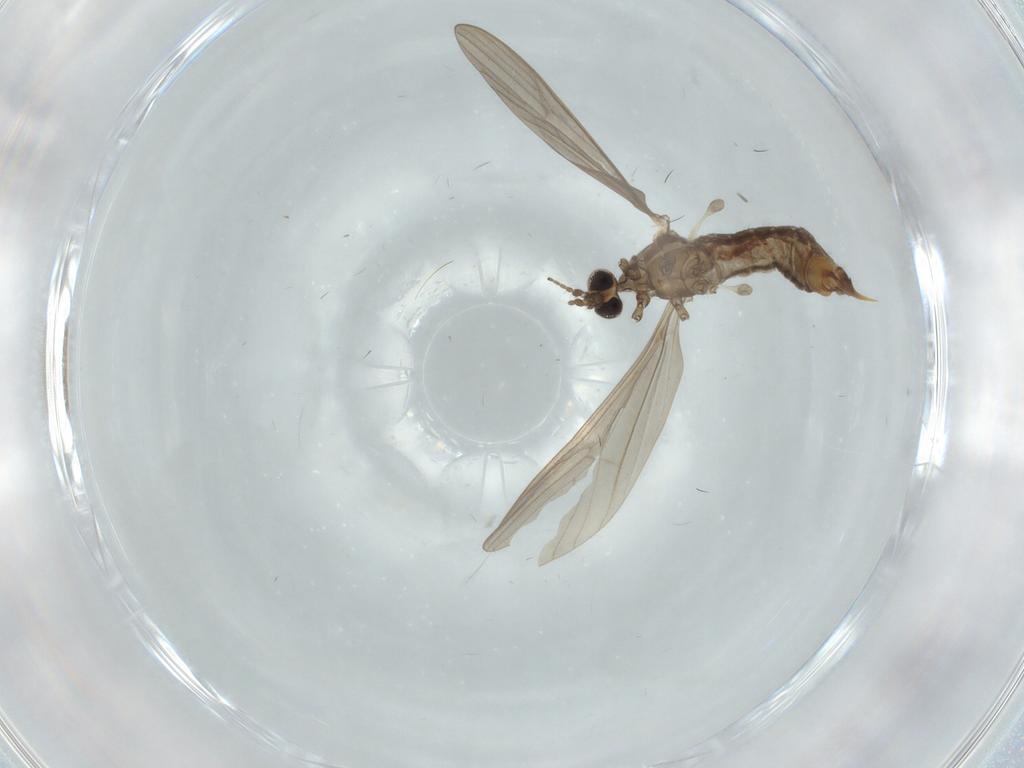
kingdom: Animalia
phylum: Arthropoda
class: Insecta
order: Diptera
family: Limoniidae
